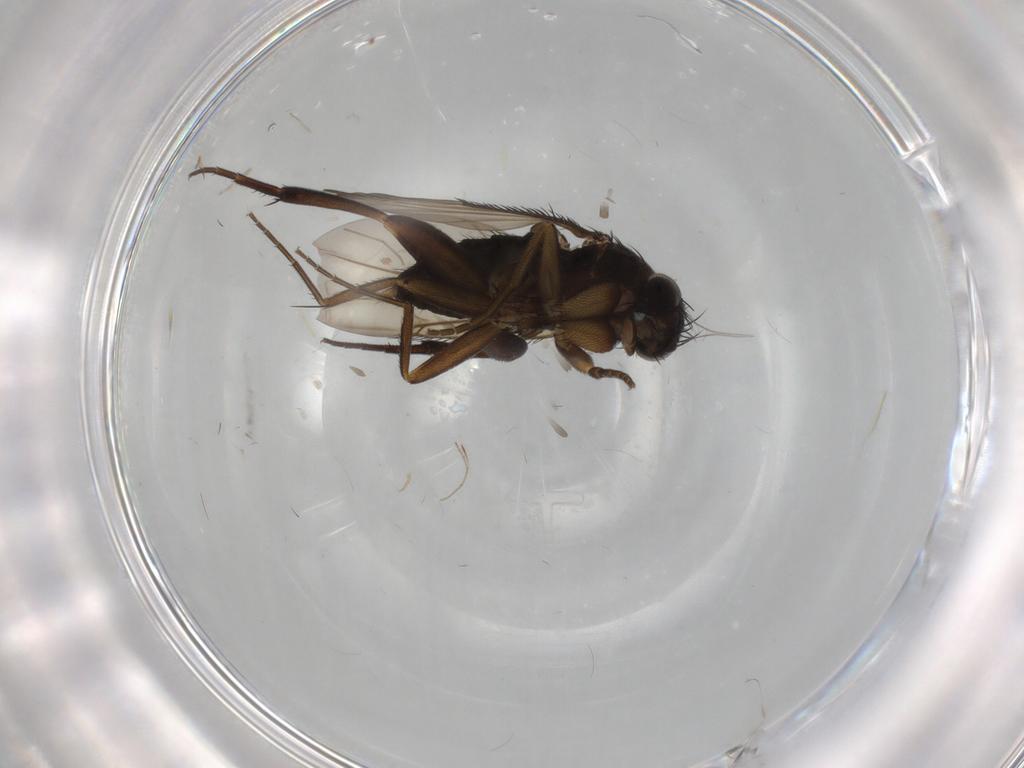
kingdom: Animalia
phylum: Arthropoda
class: Insecta
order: Diptera
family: Phoridae
